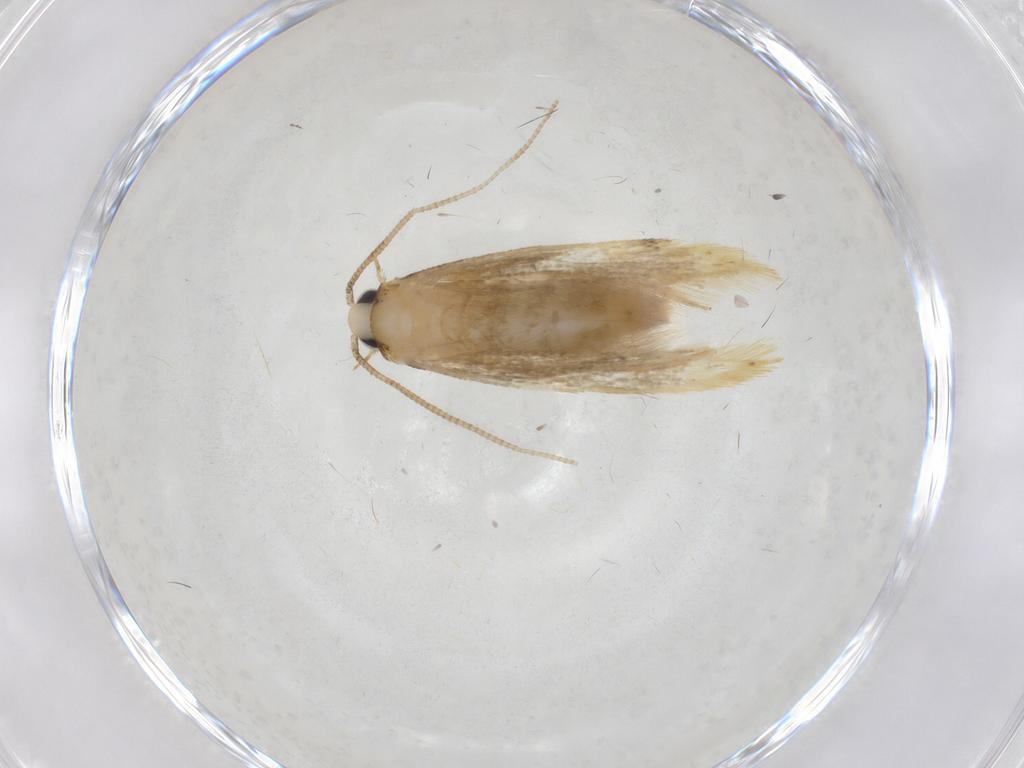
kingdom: Animalia
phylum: Arthropoda
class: Insecta
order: Lepidoptera
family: Tineidae
